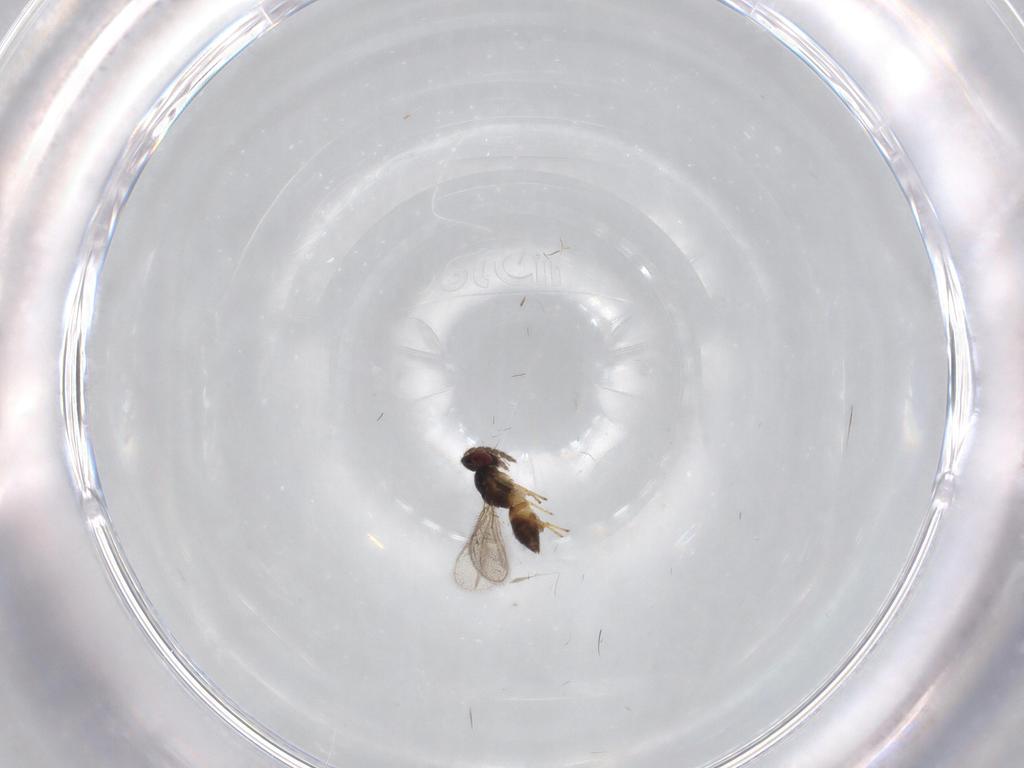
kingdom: Animalia
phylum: Arthropoda
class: Insecta
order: Hymenoptera
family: Eulophidae
